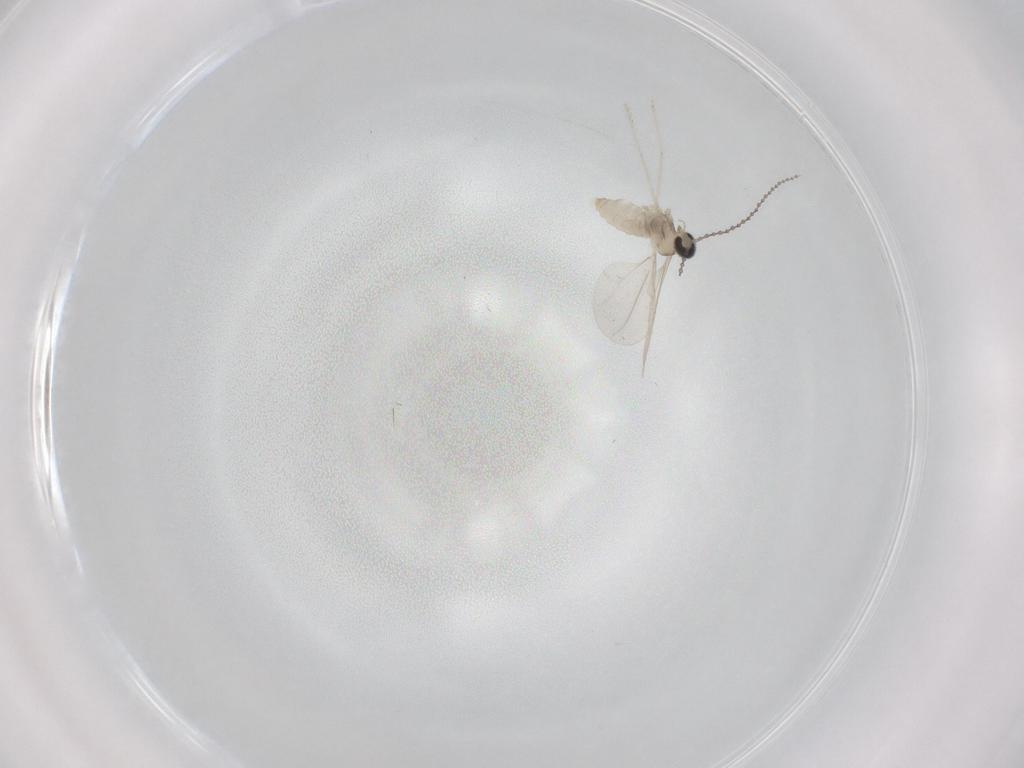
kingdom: Animalia
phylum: Arthropoda
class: Insecta
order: Diptera
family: Cecidomyiidae
